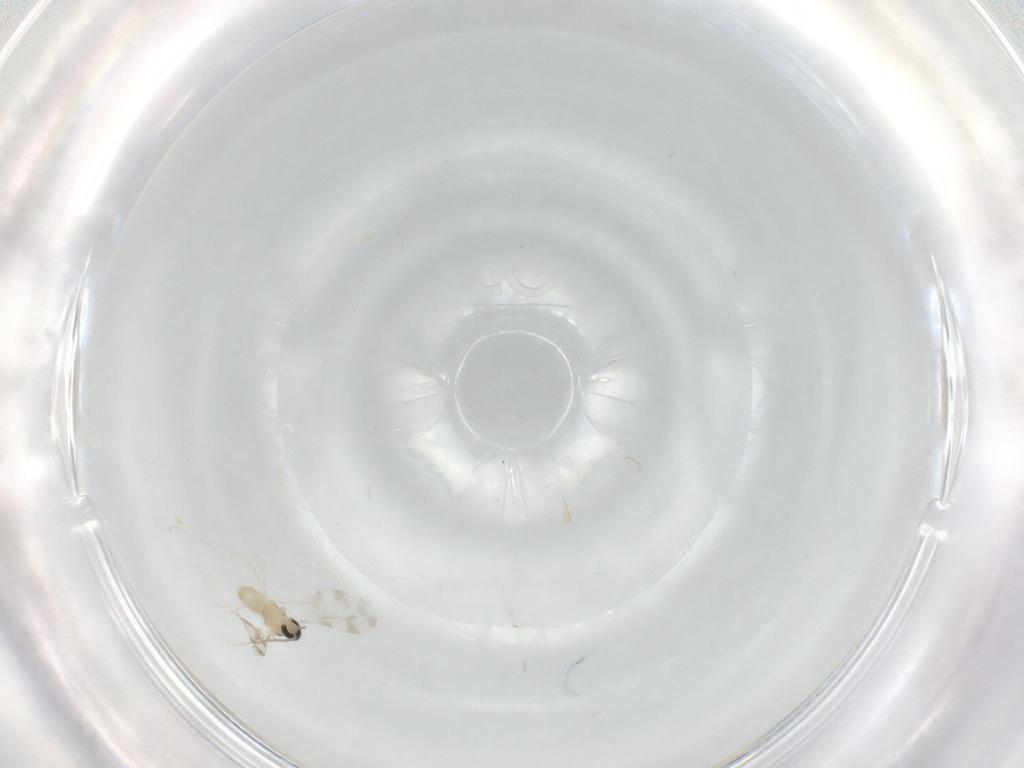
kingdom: Animalia
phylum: Arthropoda
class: Insecta
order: Diptera
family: Cecidomyiidae
